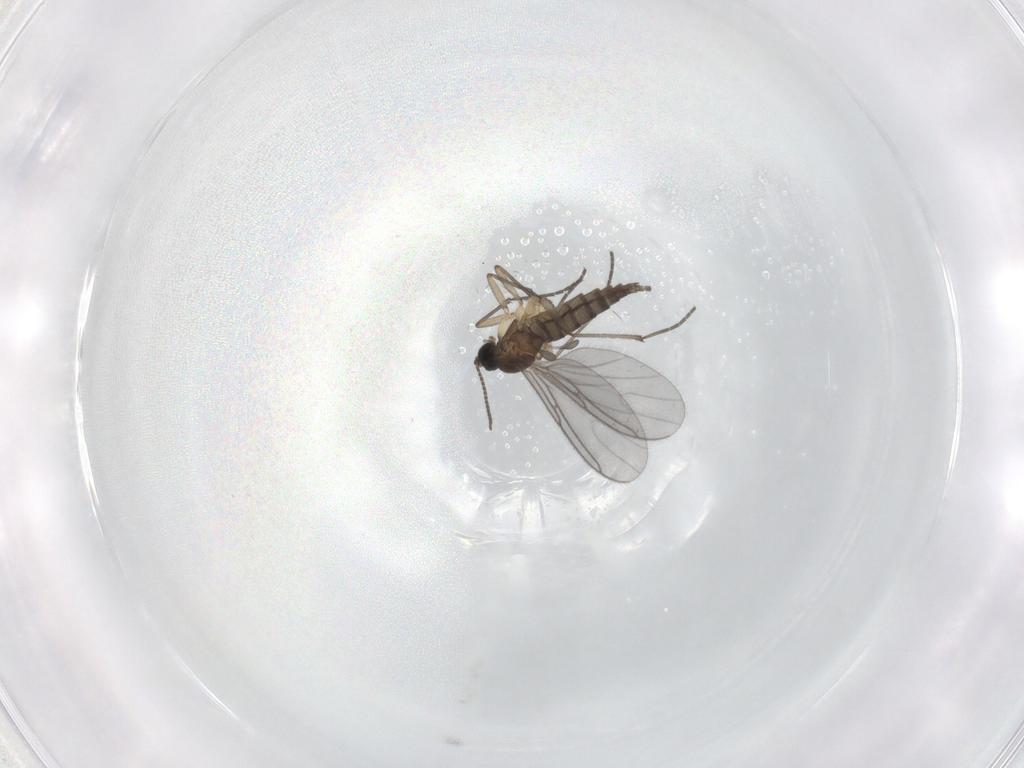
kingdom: Animalia
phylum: Arthropoda
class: Insecta
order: Diptera
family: Sciaridae
